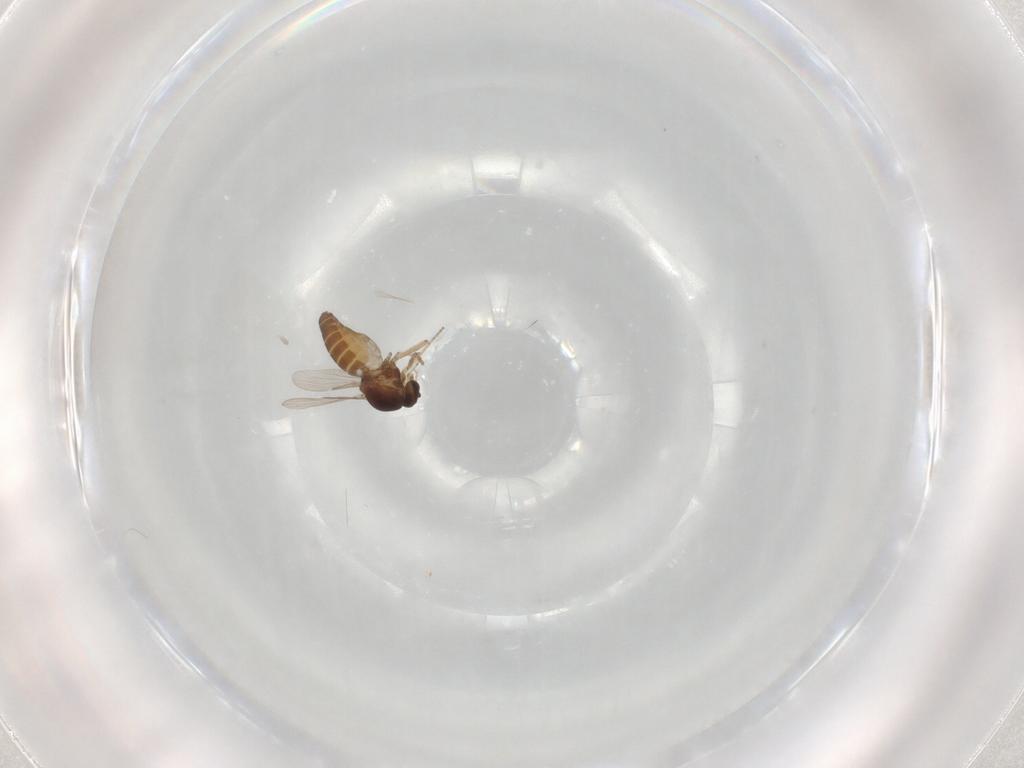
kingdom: Animalia
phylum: Arthropoda
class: Insecta
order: Diptera
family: Ceratopogonidae
